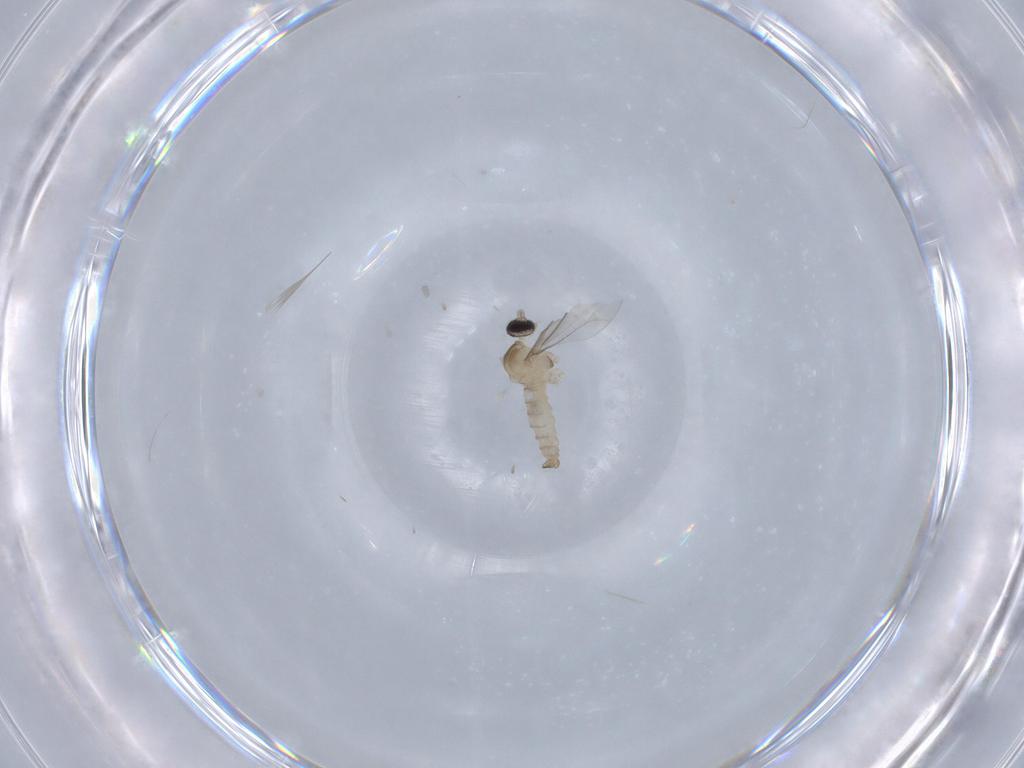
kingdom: Animalia
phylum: Arthropoda
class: Insecta
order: Diptera
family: Cecidomyiidae
